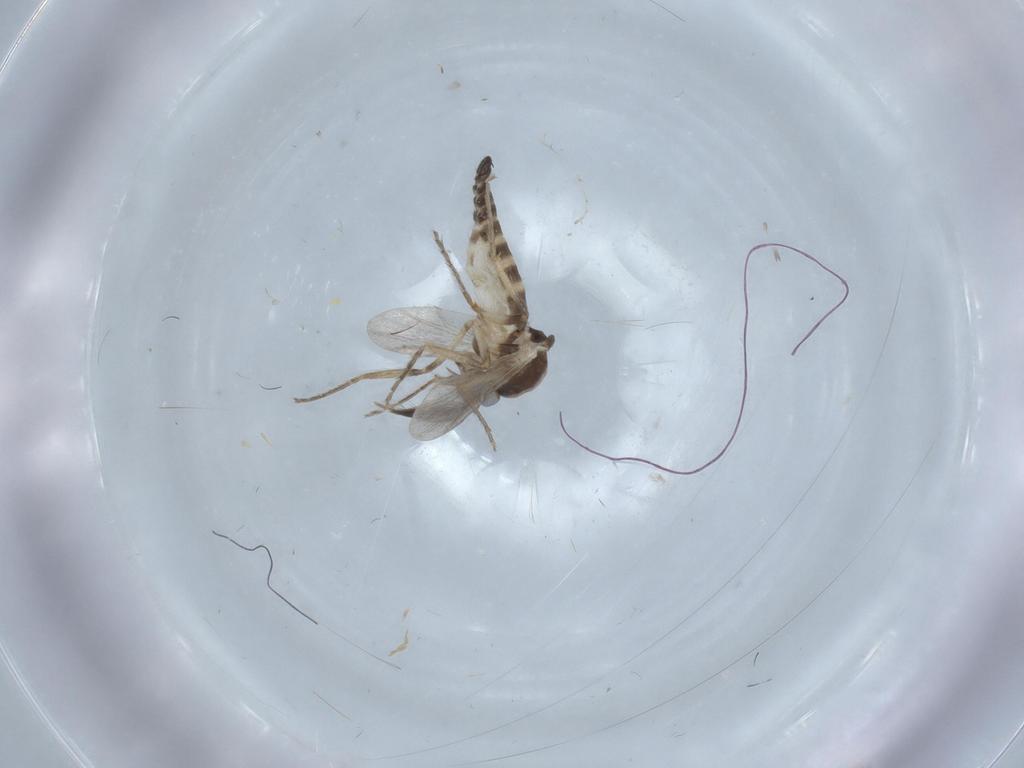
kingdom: Animalia
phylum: Arthropoda
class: Insecta
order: Diptera
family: Ceratopogonidae
